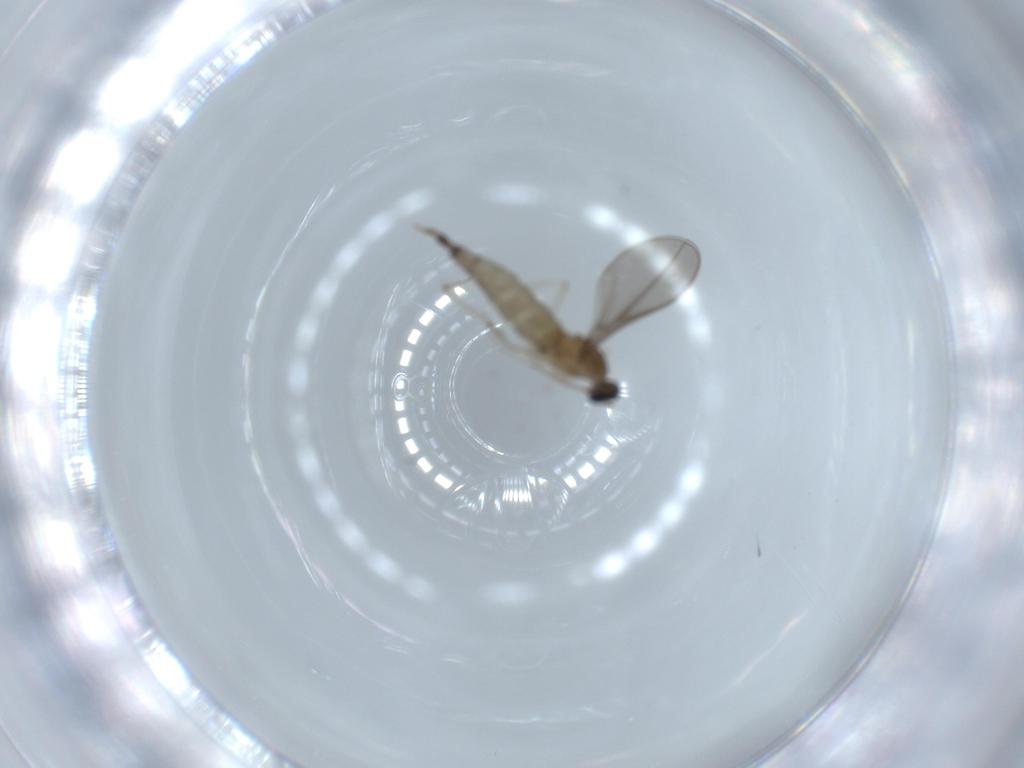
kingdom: Animalia
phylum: Arthropoda
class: Insecta
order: Diptera
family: Cecidomyiidae
